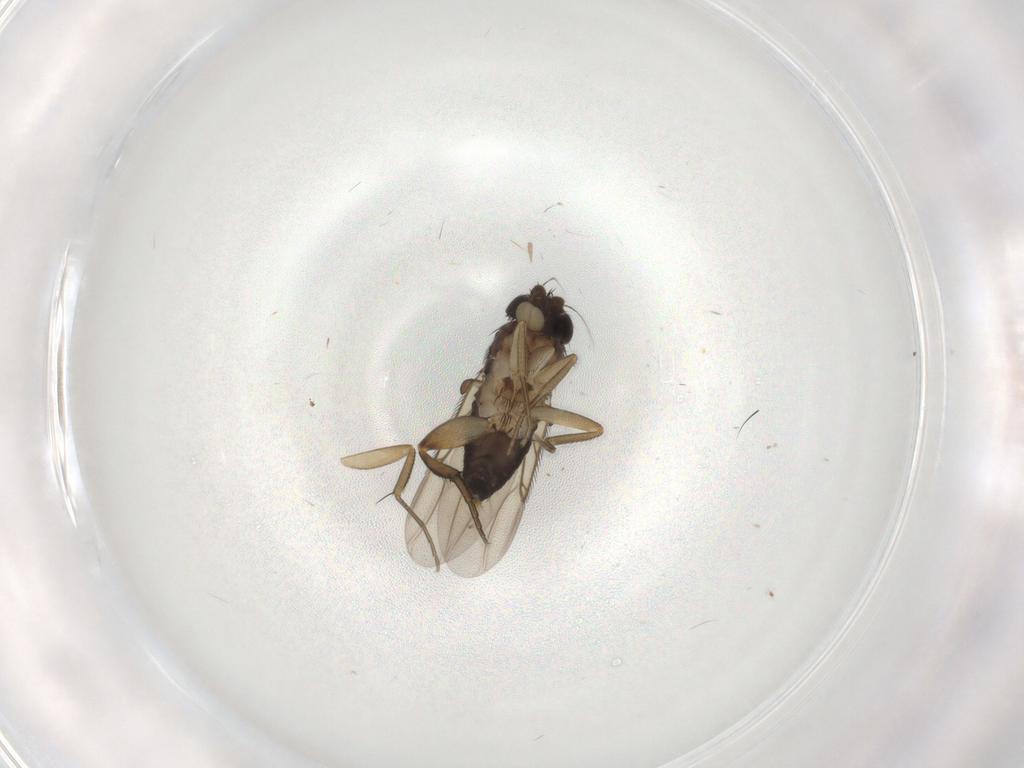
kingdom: Animalia
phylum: Arthropoda
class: Insecta
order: Diptera
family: Phoridae
